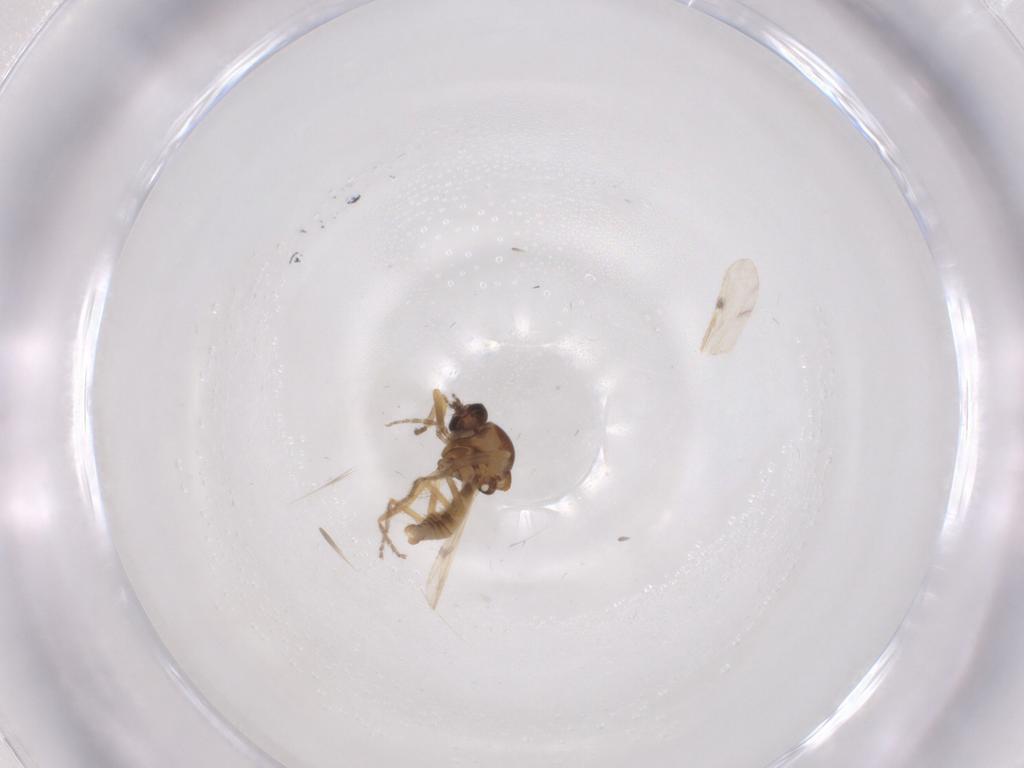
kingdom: Animalia
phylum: Arthropoda
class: Insecta
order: Diptera
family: Ceratopogonidae
